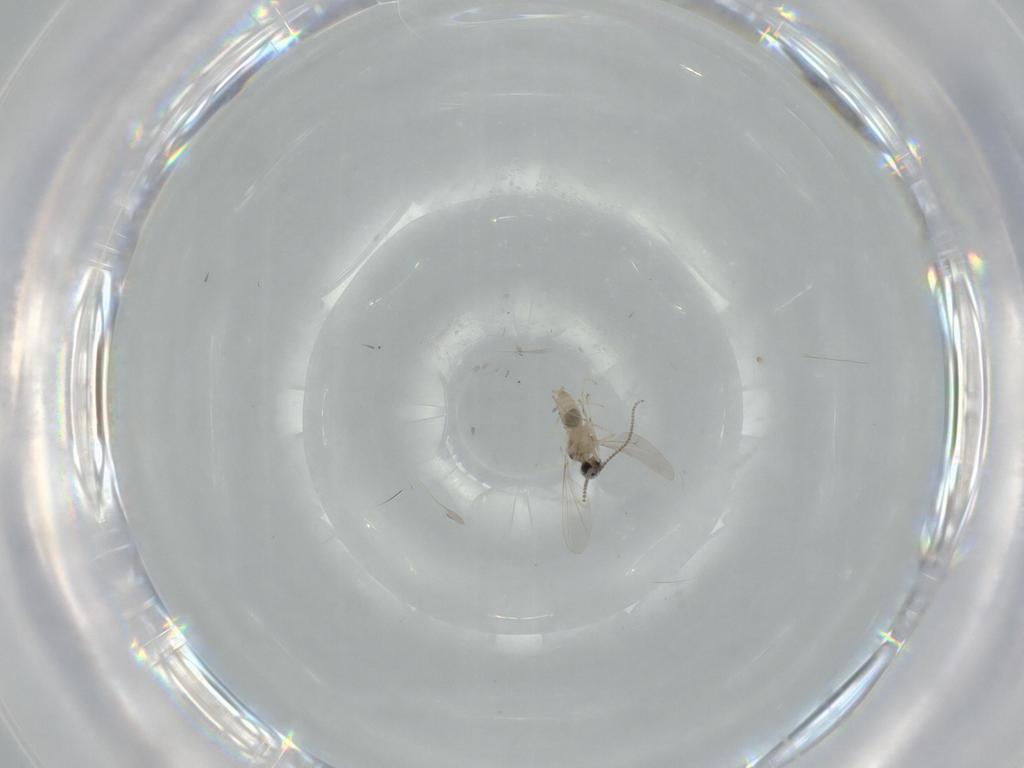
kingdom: Animalia
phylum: Arthropoda
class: Insecta
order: Diptera
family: Cecidomyiidae
